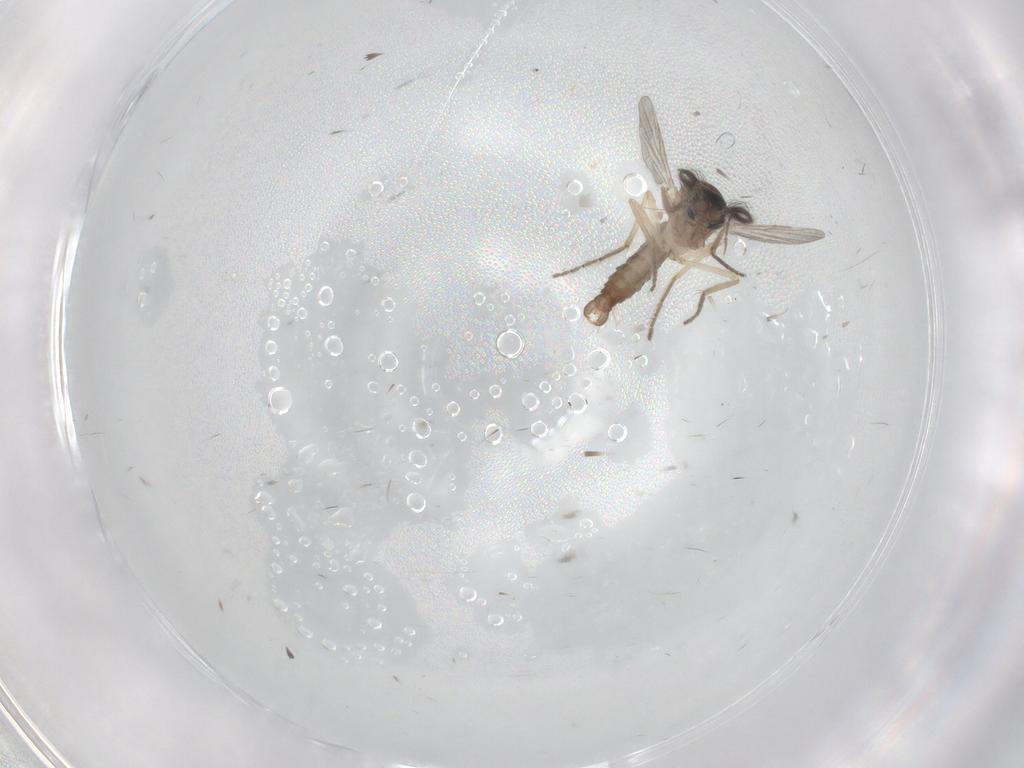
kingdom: Animalia
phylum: Arthropoda
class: Insecta
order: Diptera
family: Ceratopogonidae
